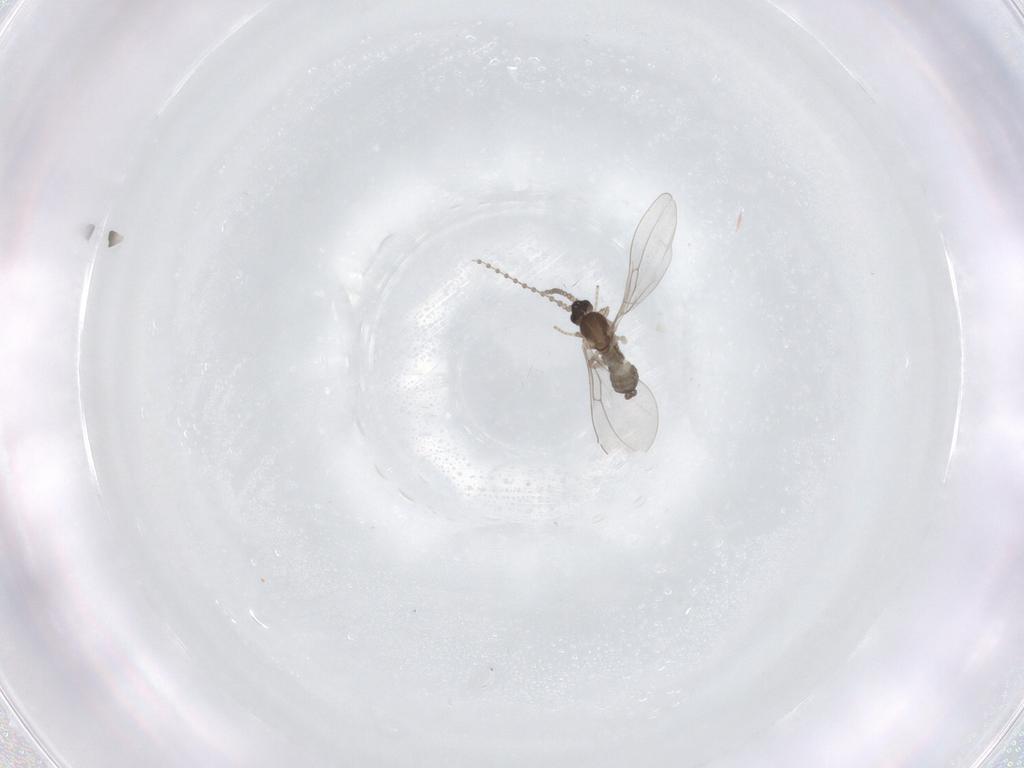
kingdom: Animalia
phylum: Arthropoda
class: Insecta
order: Diptera
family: Cecidomyiidae
